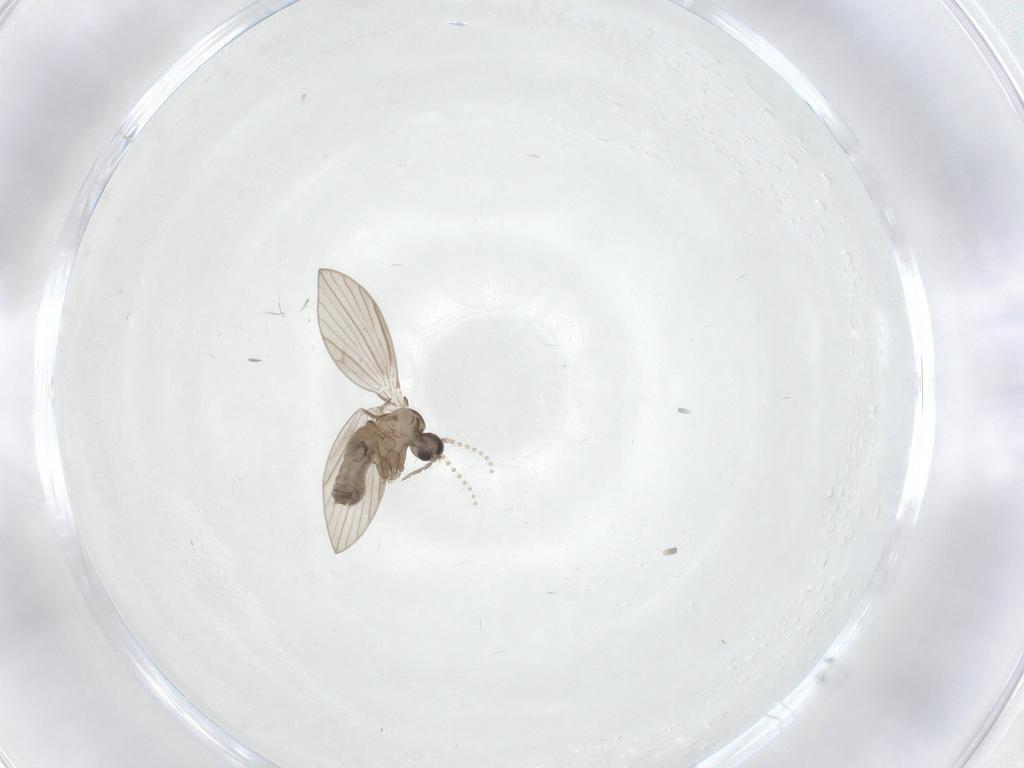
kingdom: Animalia
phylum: Arthropoda
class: Insecta
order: Diptera
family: Psychodidae
